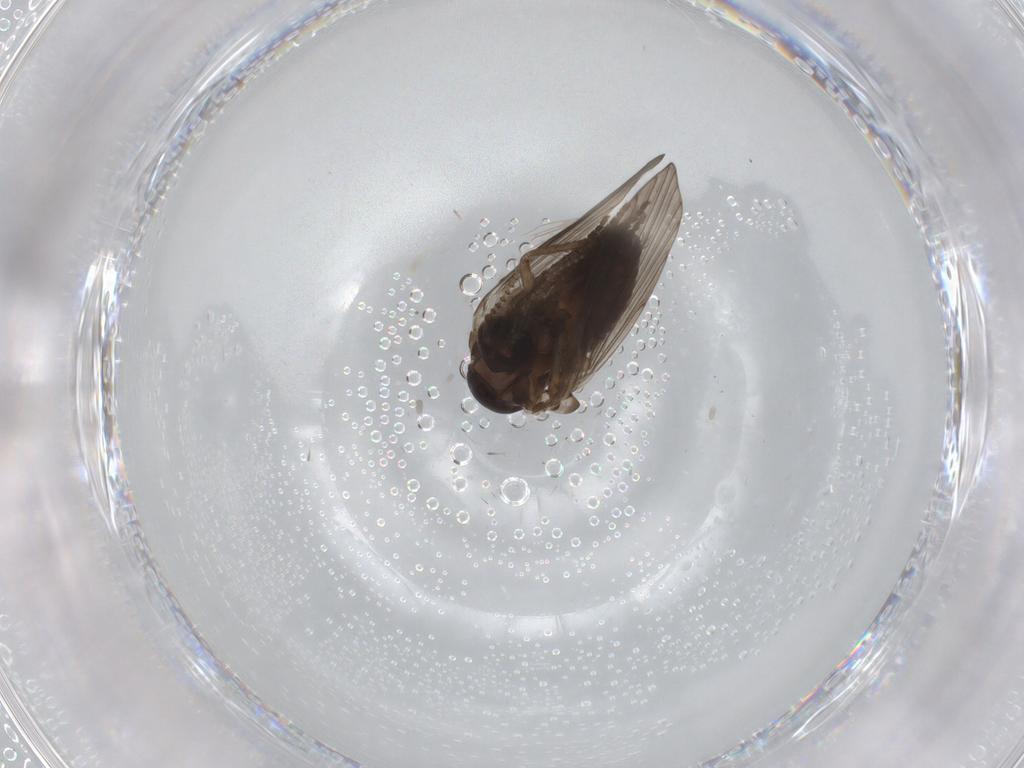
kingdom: Animalia
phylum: Arthropoda
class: Insecta
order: Diptera
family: Psychodidae
